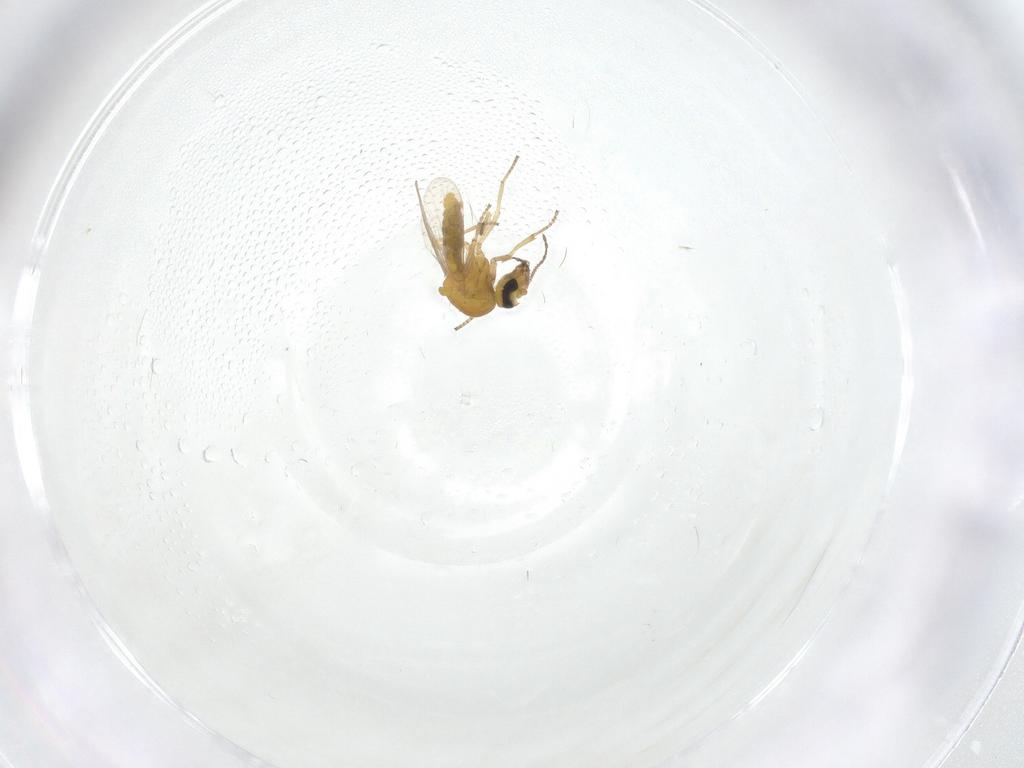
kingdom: Animalia
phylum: Arthropoda
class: Insecta
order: Diptera
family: Ceratopogonidae
